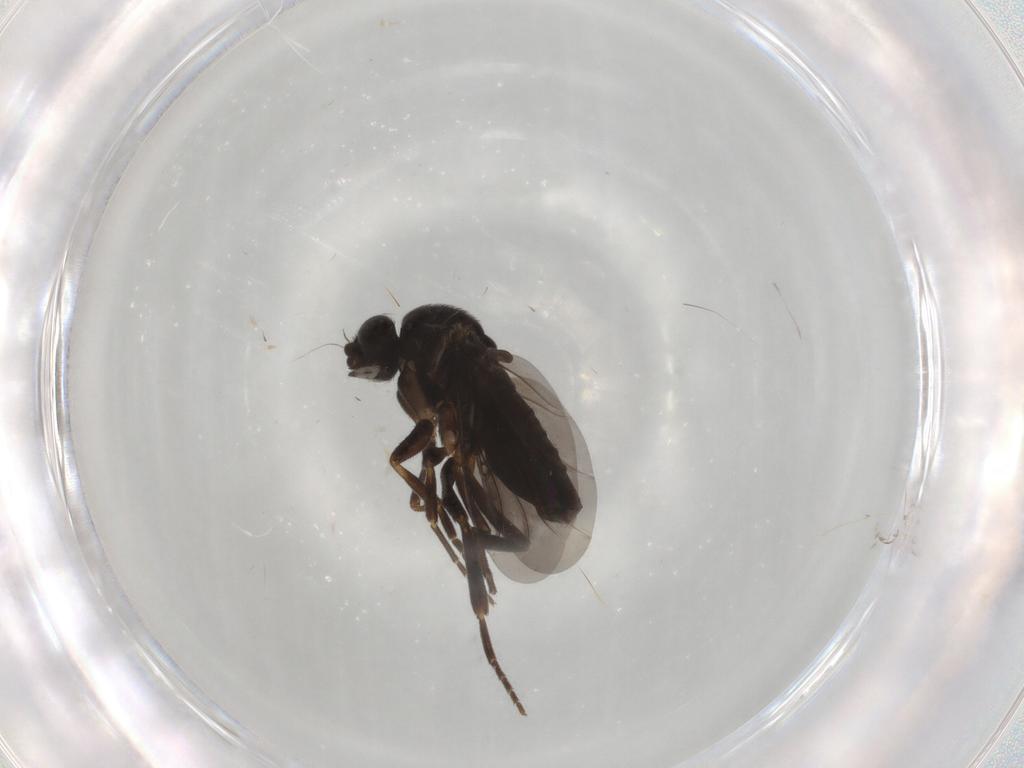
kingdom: Animalia
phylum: Arthropoda
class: Insecta
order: Diptera
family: Phoridae
